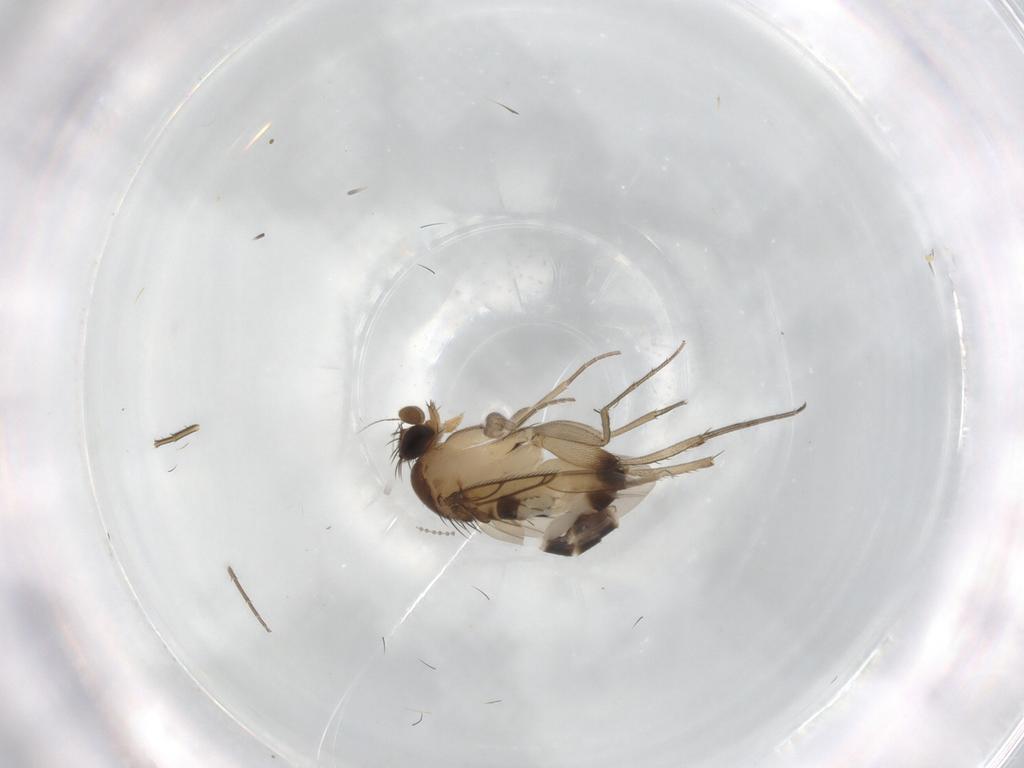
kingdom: Animalia
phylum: Arthropoda
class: Insecta
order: Diptera
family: Phoridae
